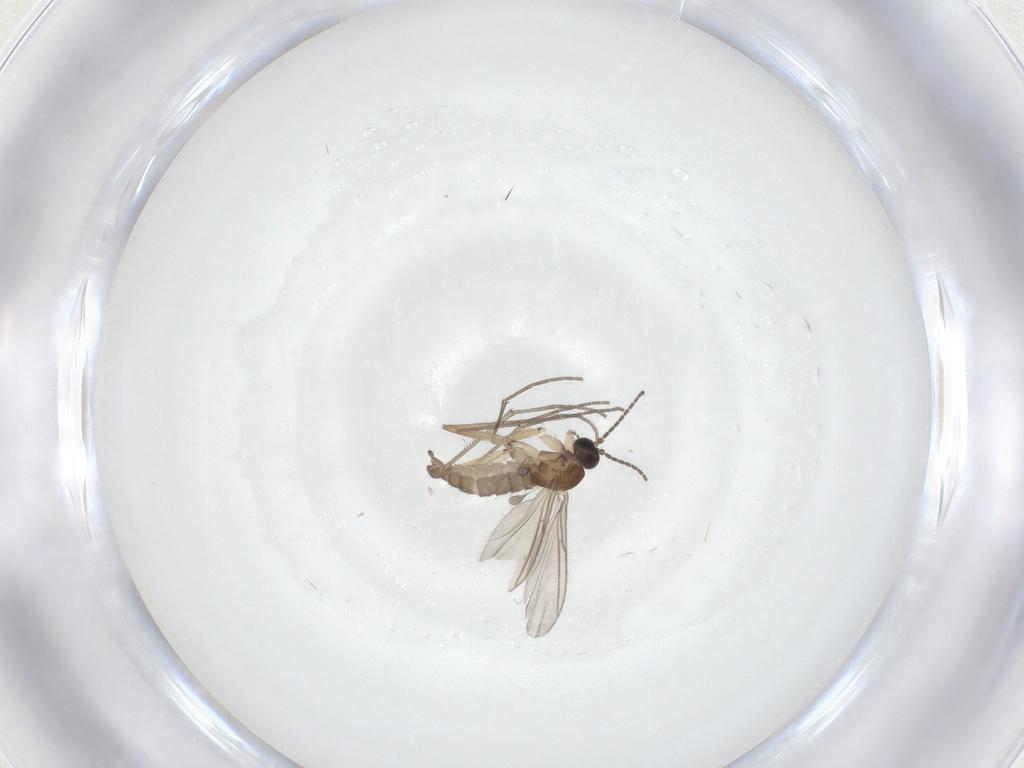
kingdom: Animalia
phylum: Arthropoda
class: Insecta
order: Diptera
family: Sciaridae
